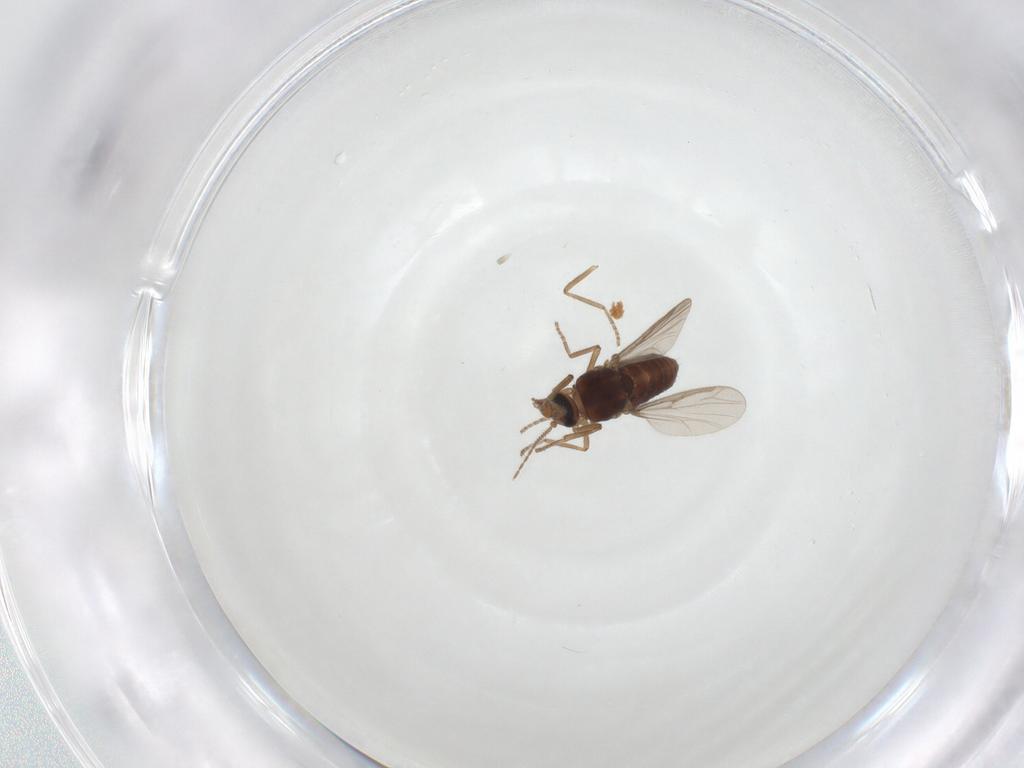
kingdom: Animalia
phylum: Arthropoda
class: Insecta
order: Diptera
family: Ceratopogonidae
